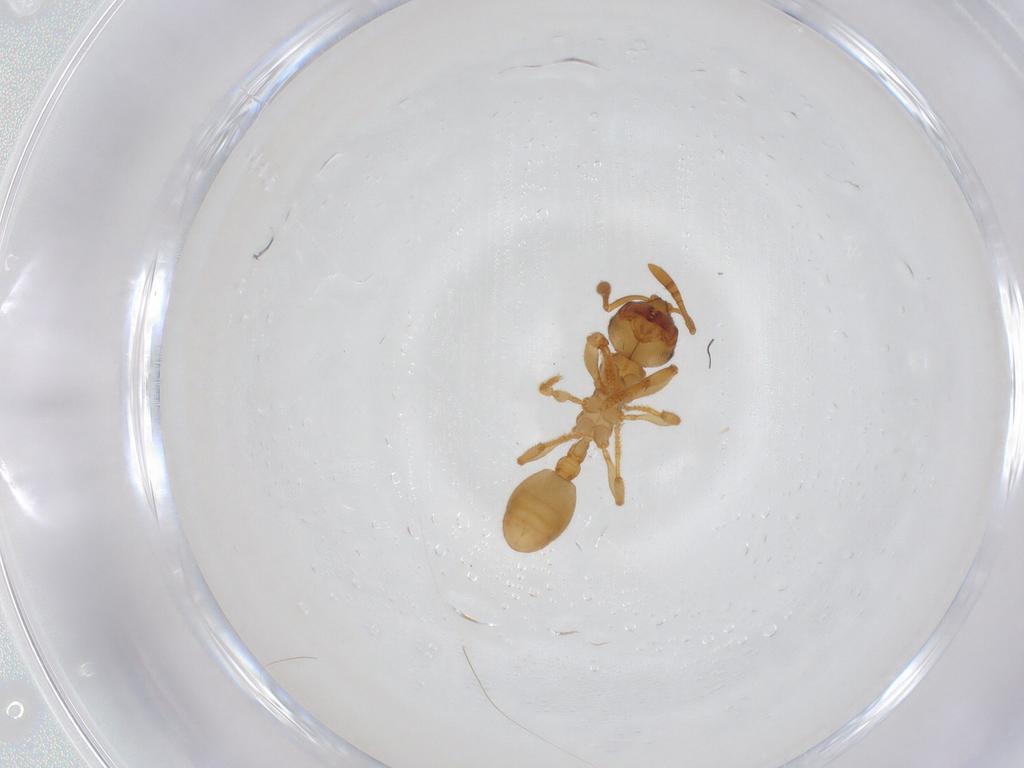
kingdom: Animalia
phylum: Arthropoda
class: Insecta
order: Hymenoptera
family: Formicidae
